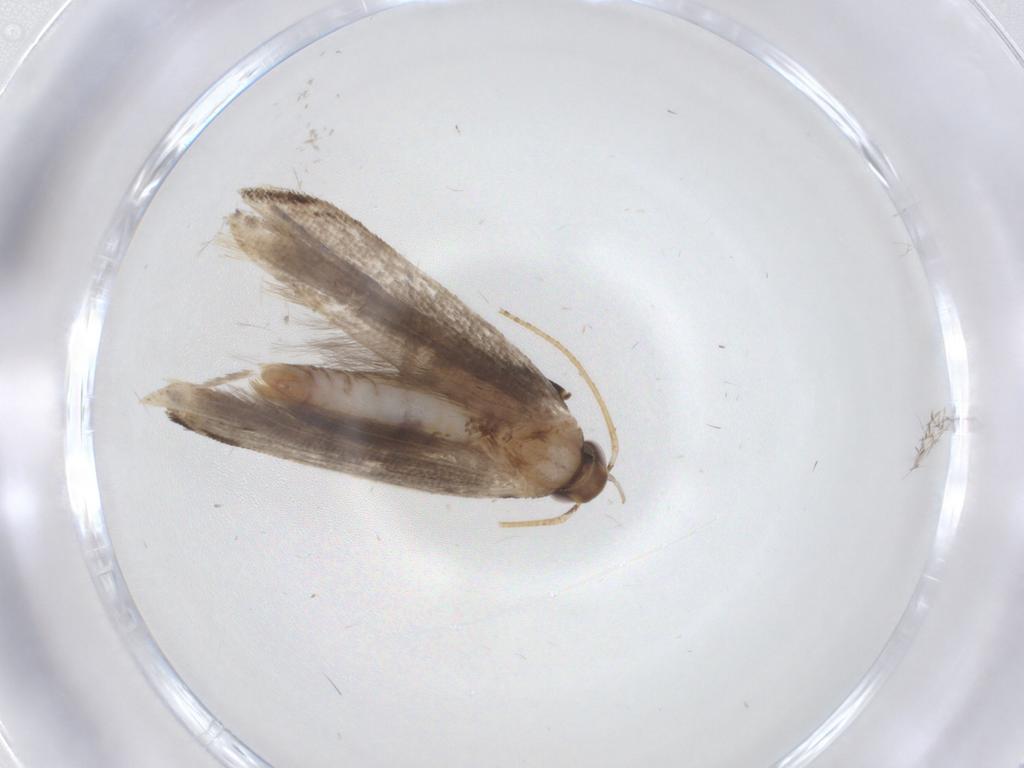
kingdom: Animalia
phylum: Arthropoda
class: Insecta
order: Lepidoptera
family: Gelechiidae
